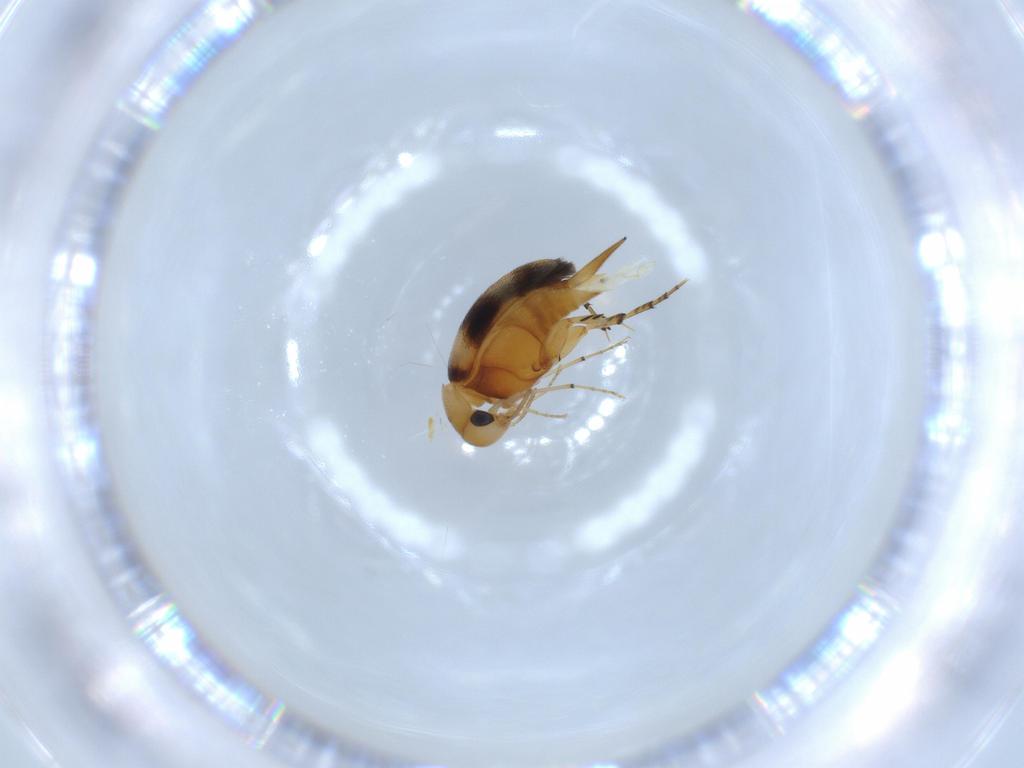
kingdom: Animalia
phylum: Arthropoda
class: Insecta
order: Coleoptera
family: Mordellidae
